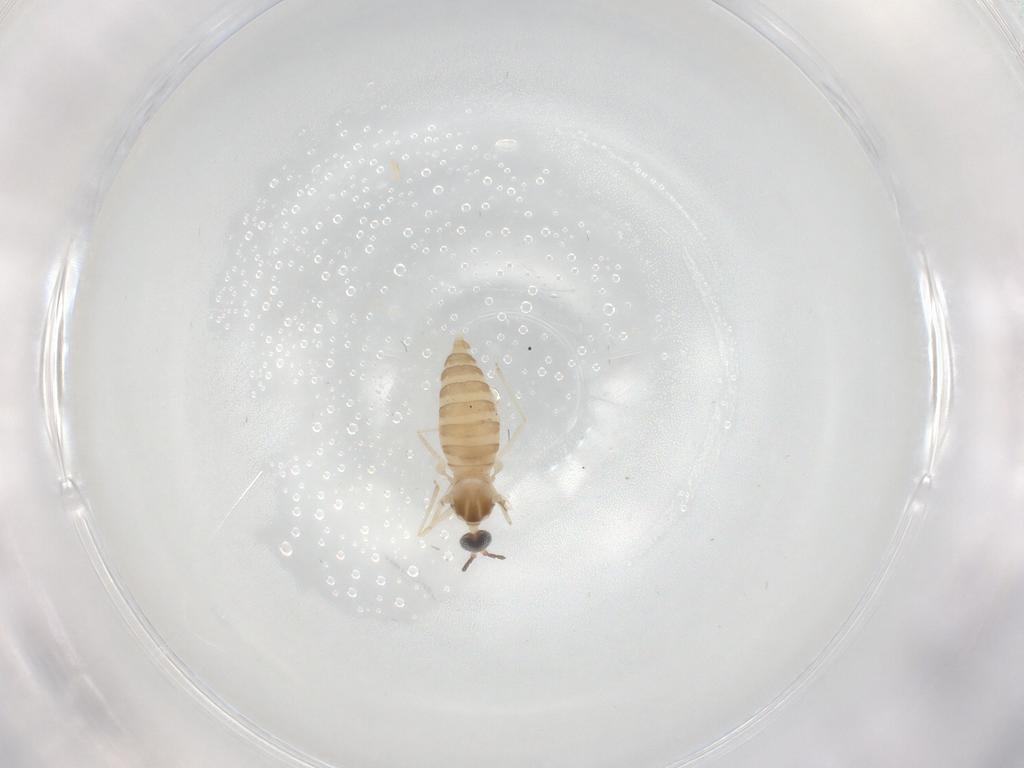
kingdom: Animalia
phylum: Arthropoda
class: Insecta
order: Diptera
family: Cecidomyiidae
